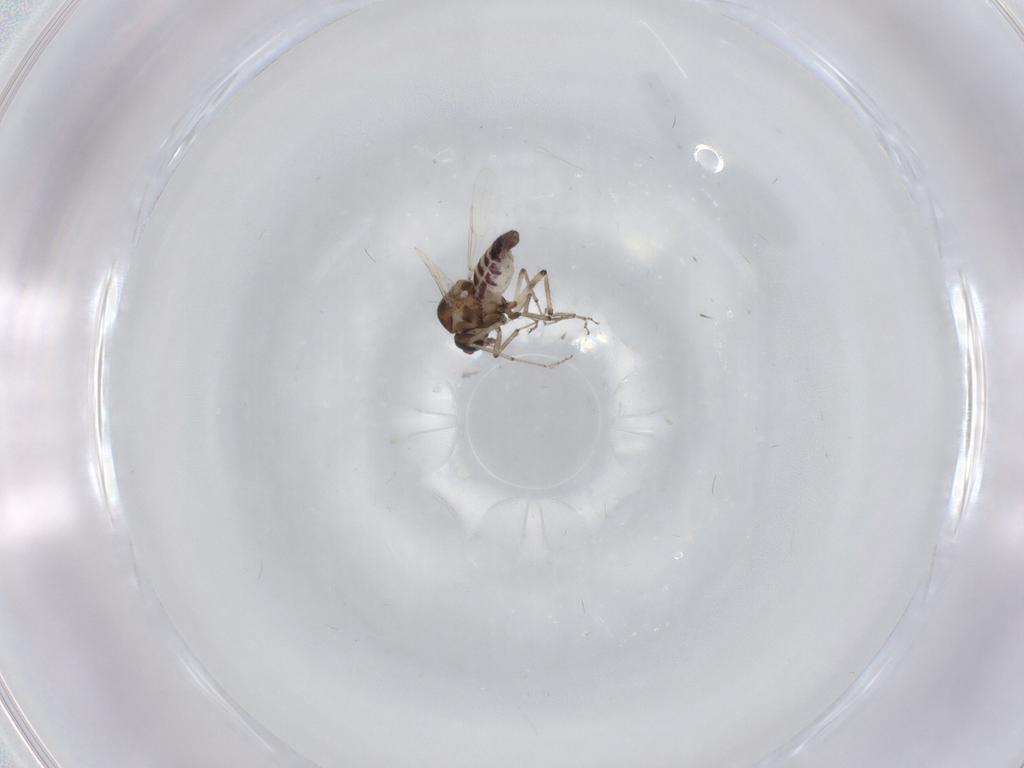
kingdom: Animalia
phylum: Arthropoda
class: Insecta
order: Diptera
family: Ceratopogonidae
